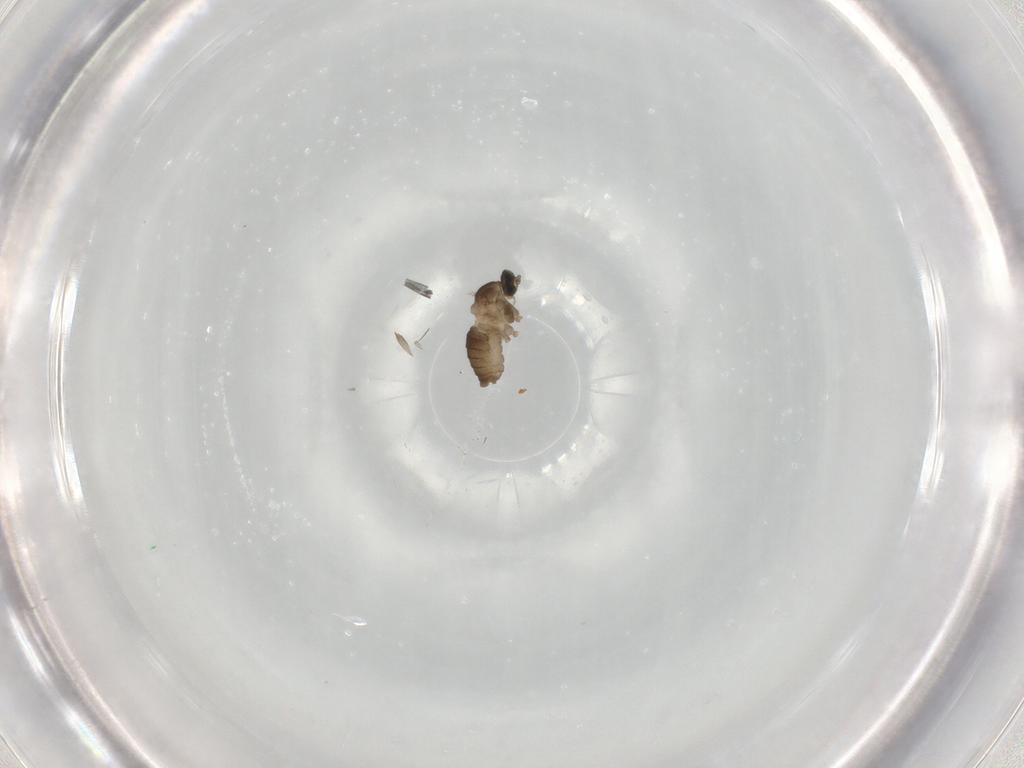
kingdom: Animalia
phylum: Arthropoda
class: Insecta
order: Diptera
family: Cecidomyiidae
